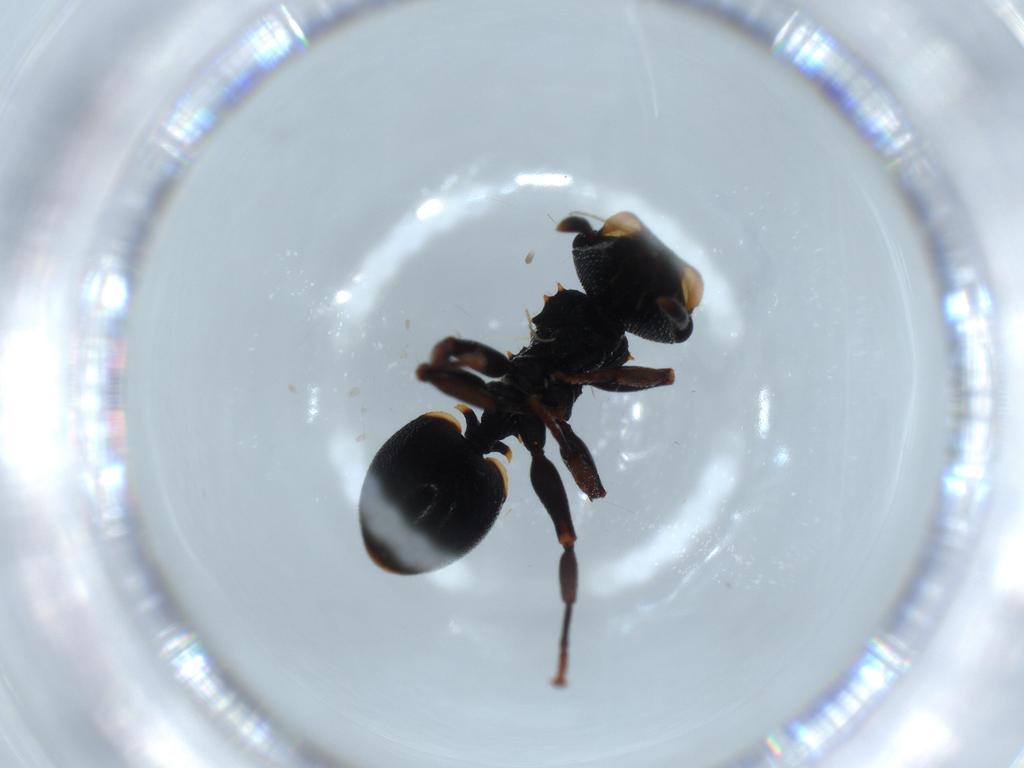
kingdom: Animalia
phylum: Arthropoda
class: Insecta
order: Hymenoptera
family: Formicidae
